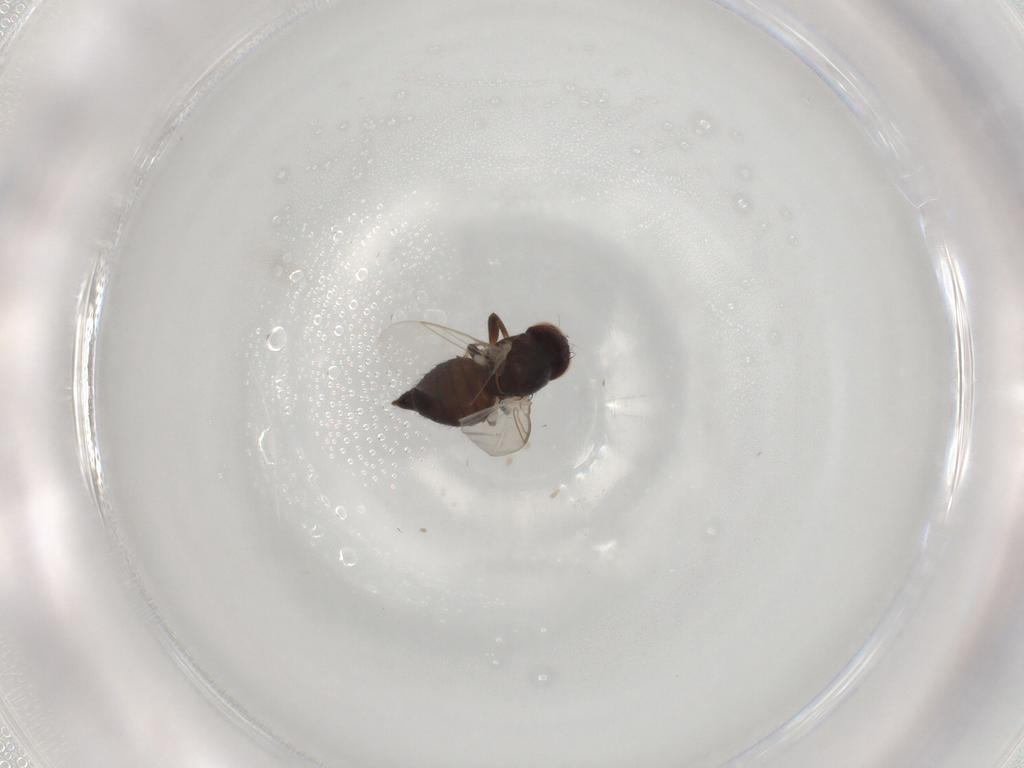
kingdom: Animalia
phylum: Arthropoda
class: Insecta
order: Diptera
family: Agromyzidae
